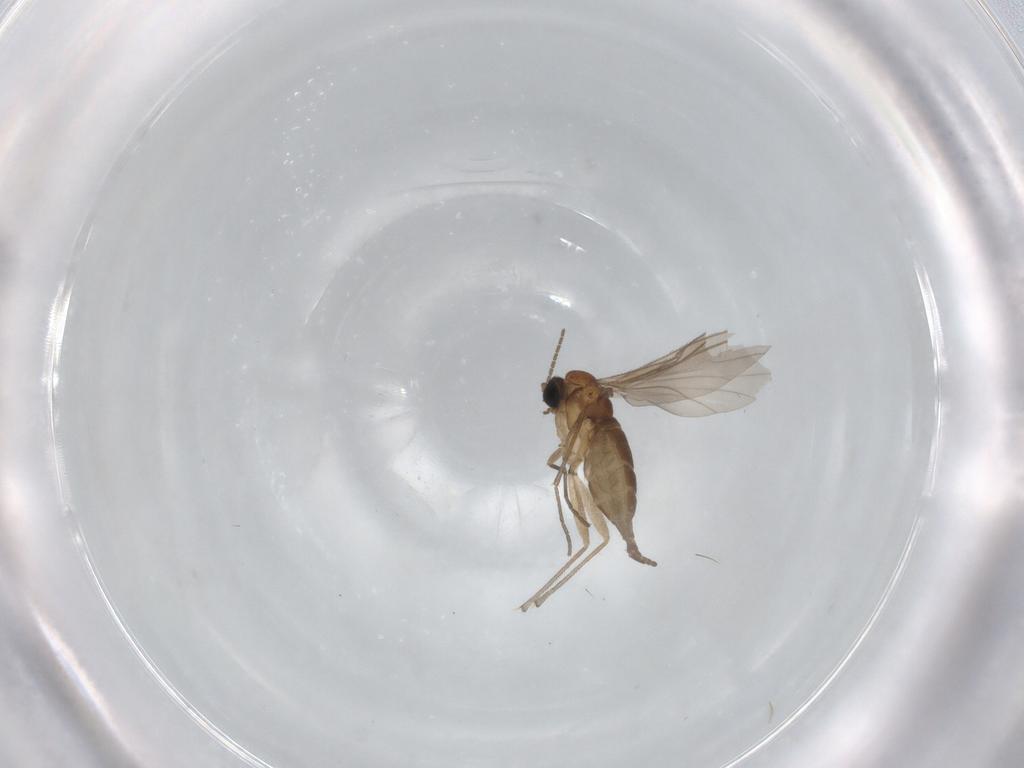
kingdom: Animalia
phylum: Arthropoda
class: Insecta
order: Diptera
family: Sciaridae
